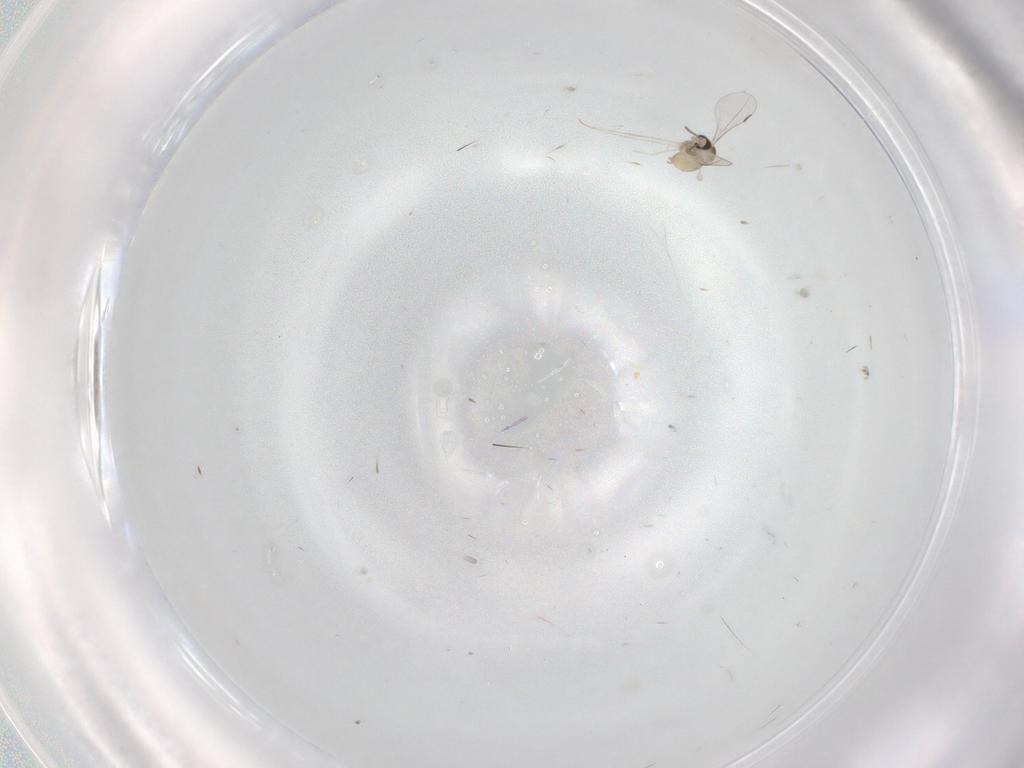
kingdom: Animalia
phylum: Arthropoda
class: Insecta
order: Diptera
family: Cecidomyiidae
